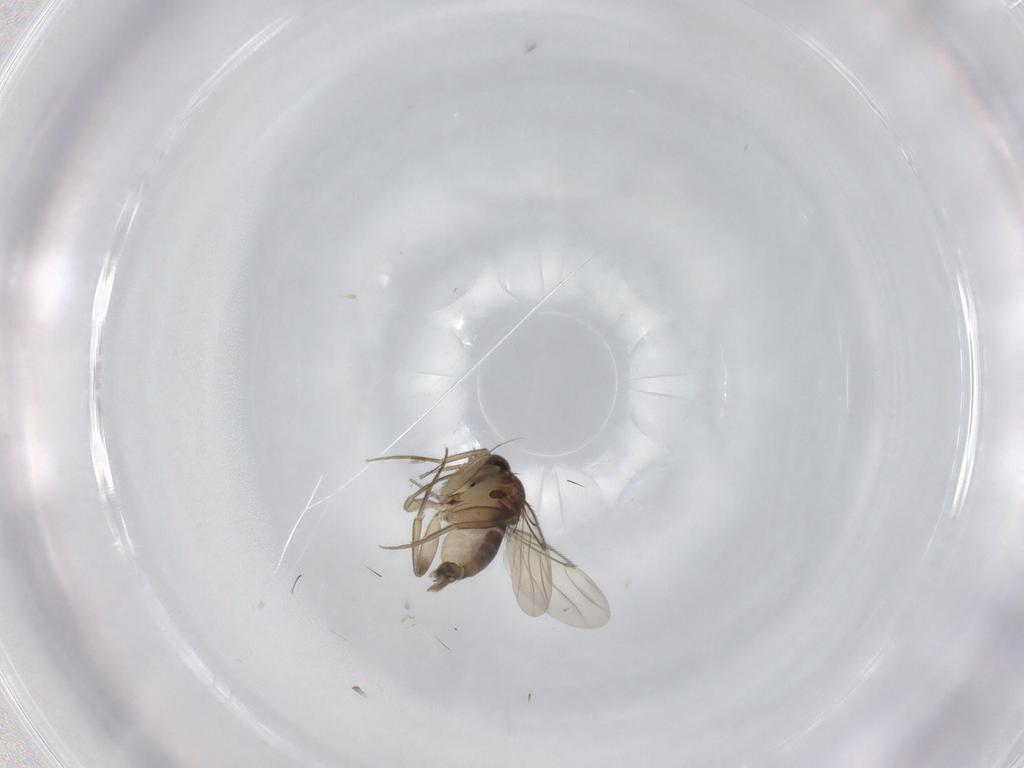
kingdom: Animalia
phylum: Arthropoda
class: Insecta
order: Diptera
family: Phoridae
